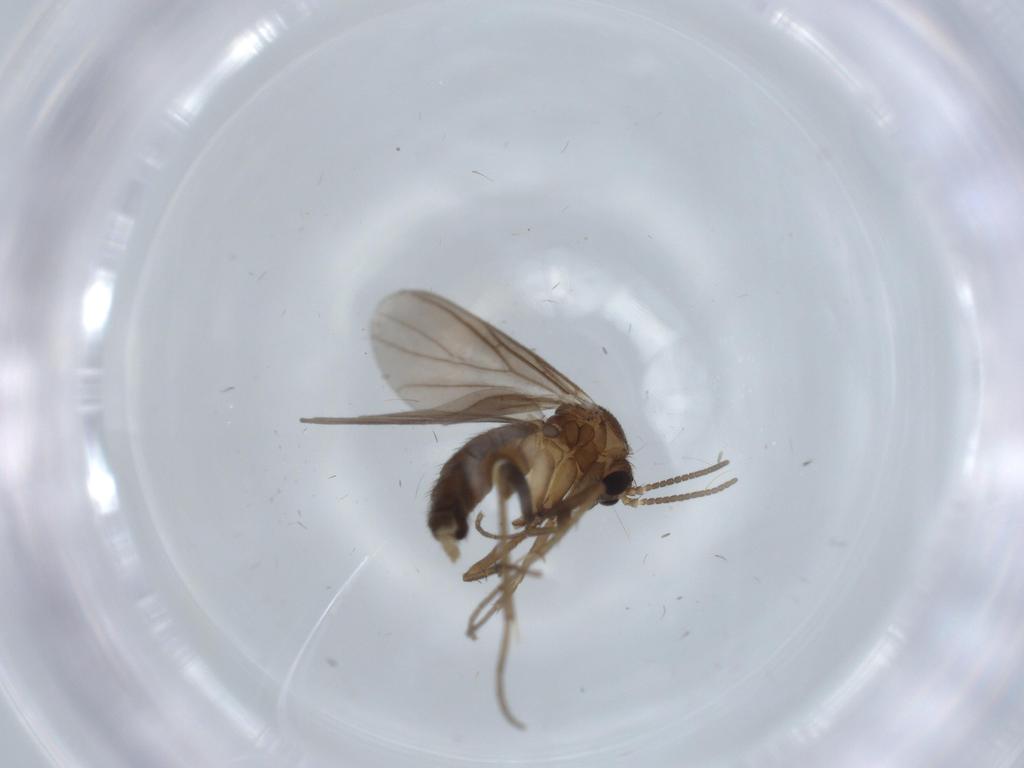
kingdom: Animalia
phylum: Arthropoda
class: Insecta
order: Diptera
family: Mycetophilidae
